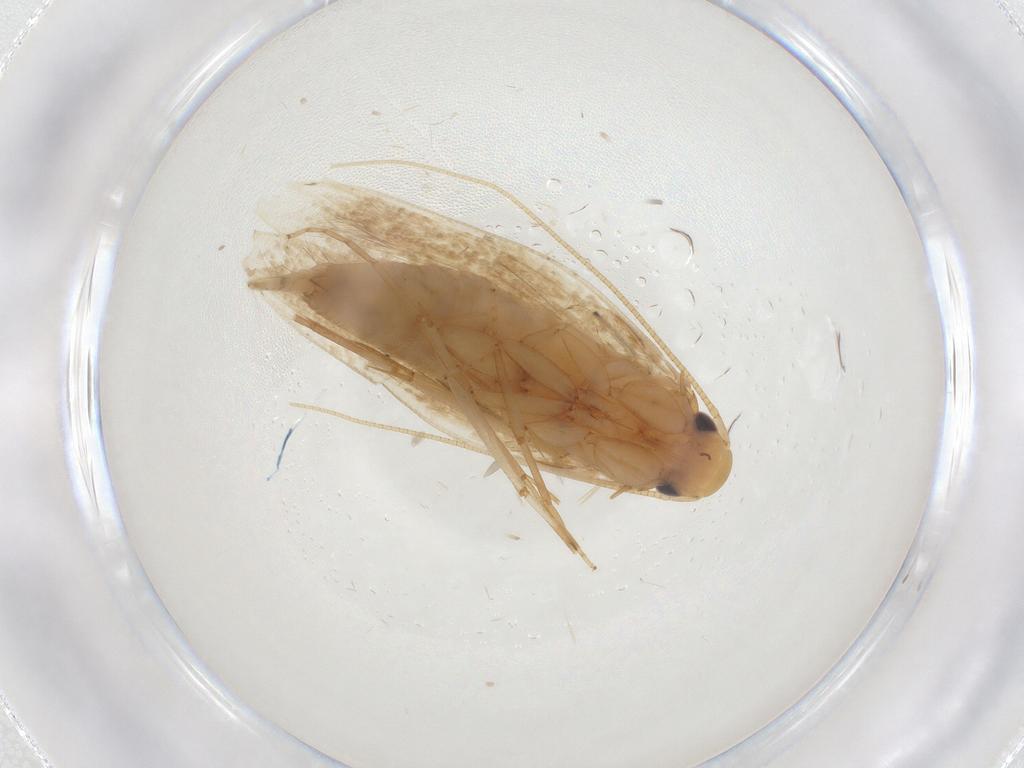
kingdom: Animalia
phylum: Arthropoda
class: Insecta
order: Lepidoptera
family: Tineidae
